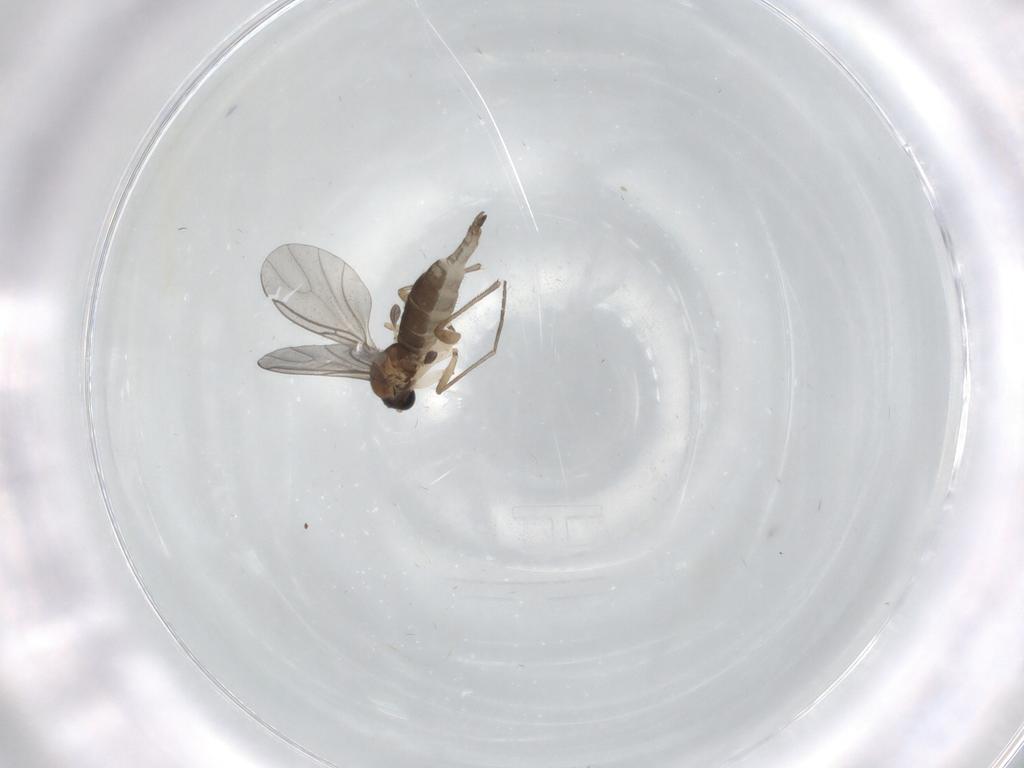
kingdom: Animalia
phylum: Arthropoda
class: Insecta
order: Diptera
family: Sciaridae
